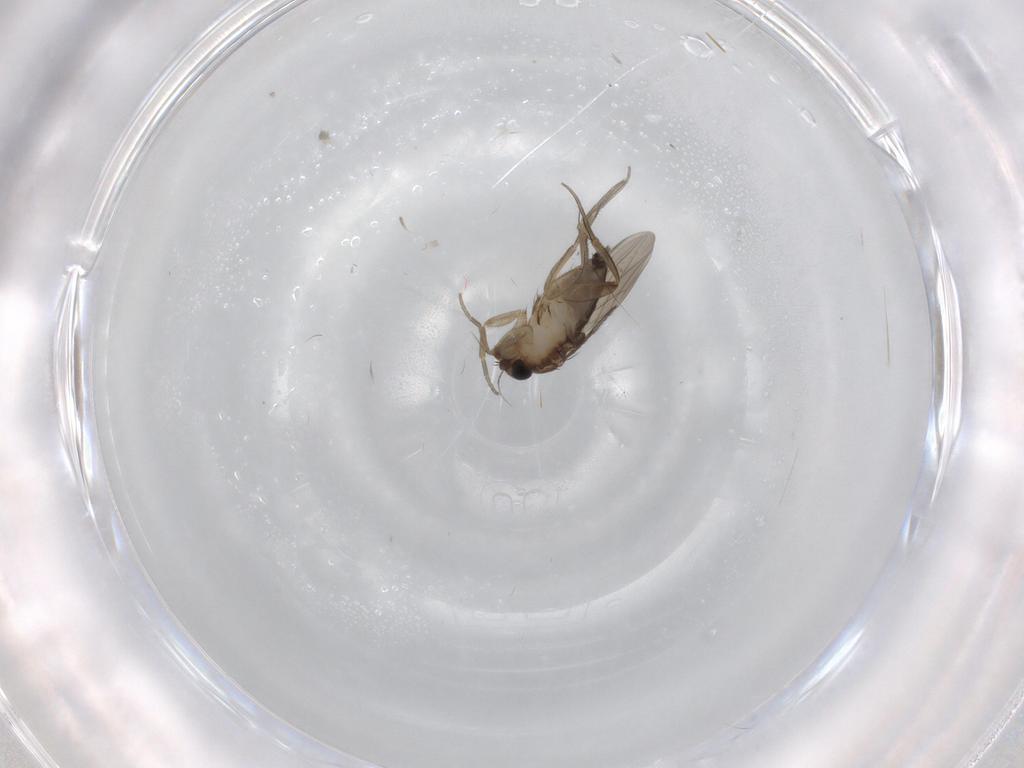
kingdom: Animalia
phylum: Arthropoda
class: Insecta
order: Diptera
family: Phoridae
